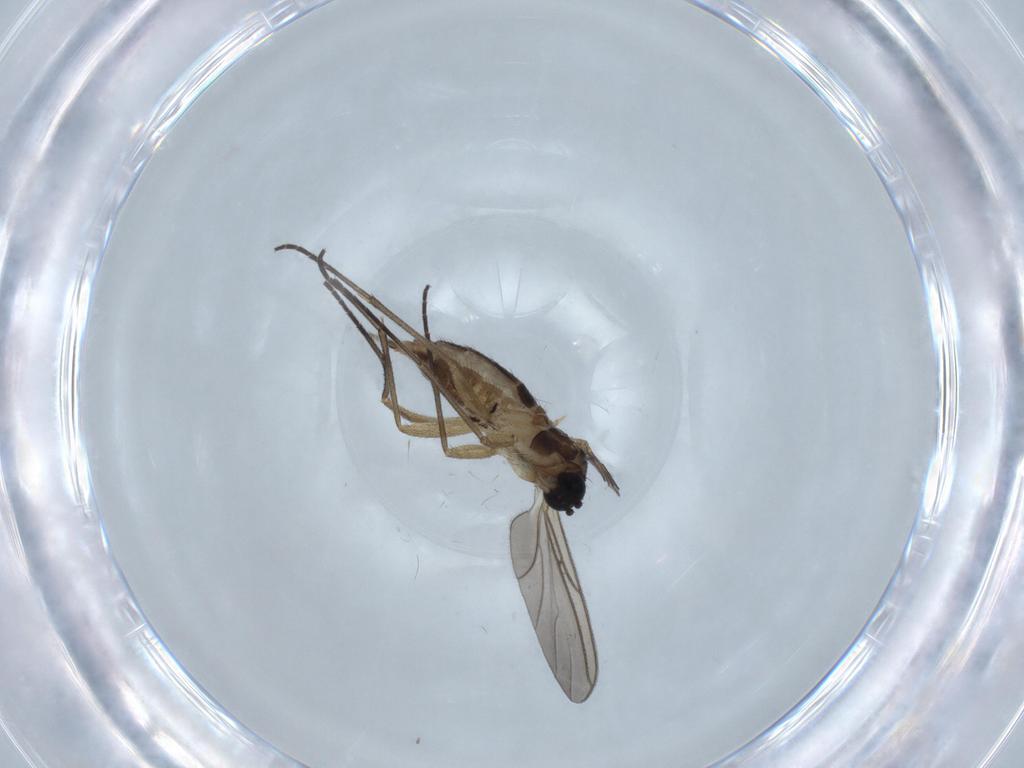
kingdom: Animalia
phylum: Arthropoda
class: Insecta
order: Diptera
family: Sciaridae
